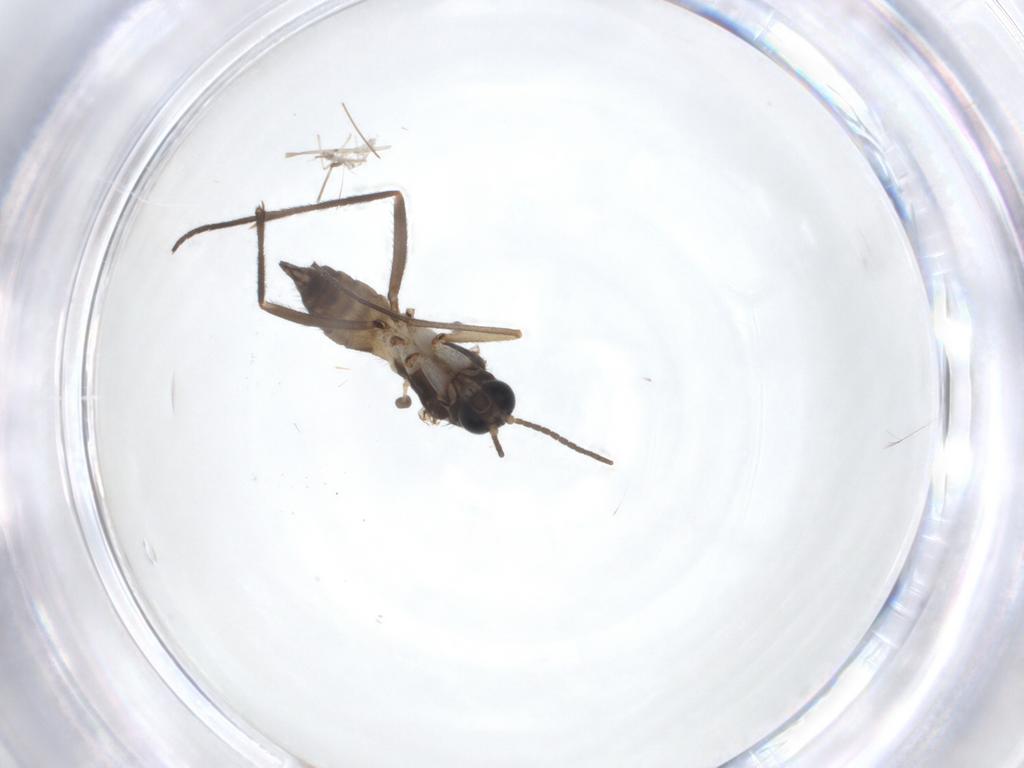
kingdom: Animalia
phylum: Arthropoda
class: Insecta
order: Diptera
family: Sciaridae
